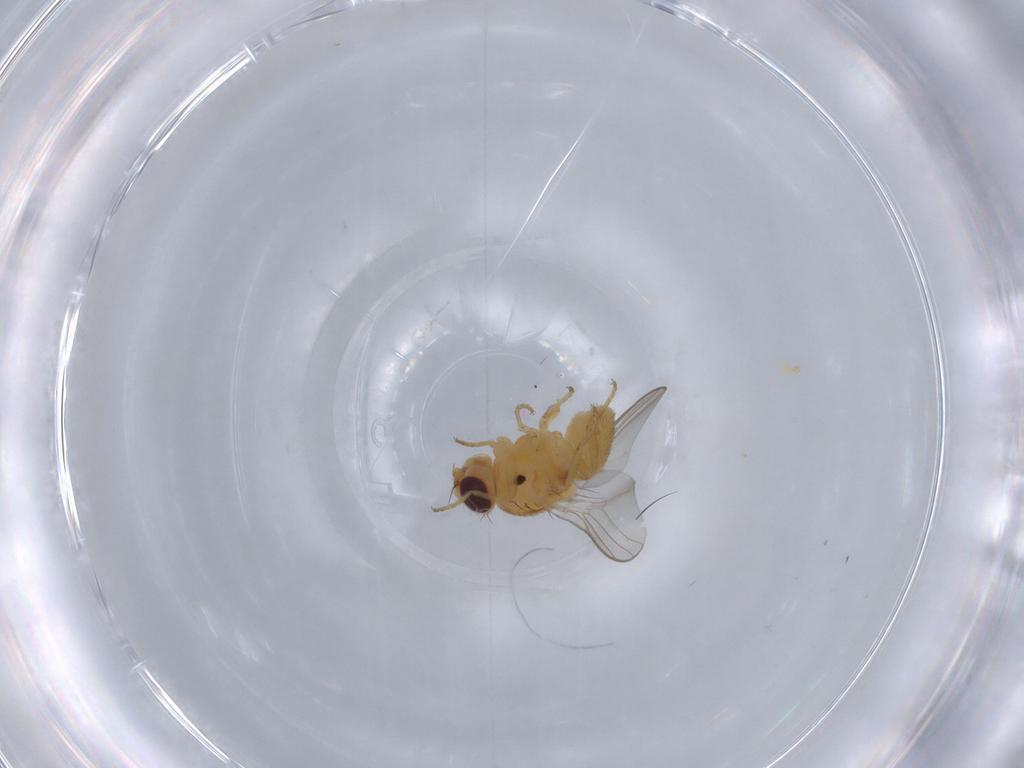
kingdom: Animalia
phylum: Arthropoda
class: Insecta
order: Diptera
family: Chloropidae
